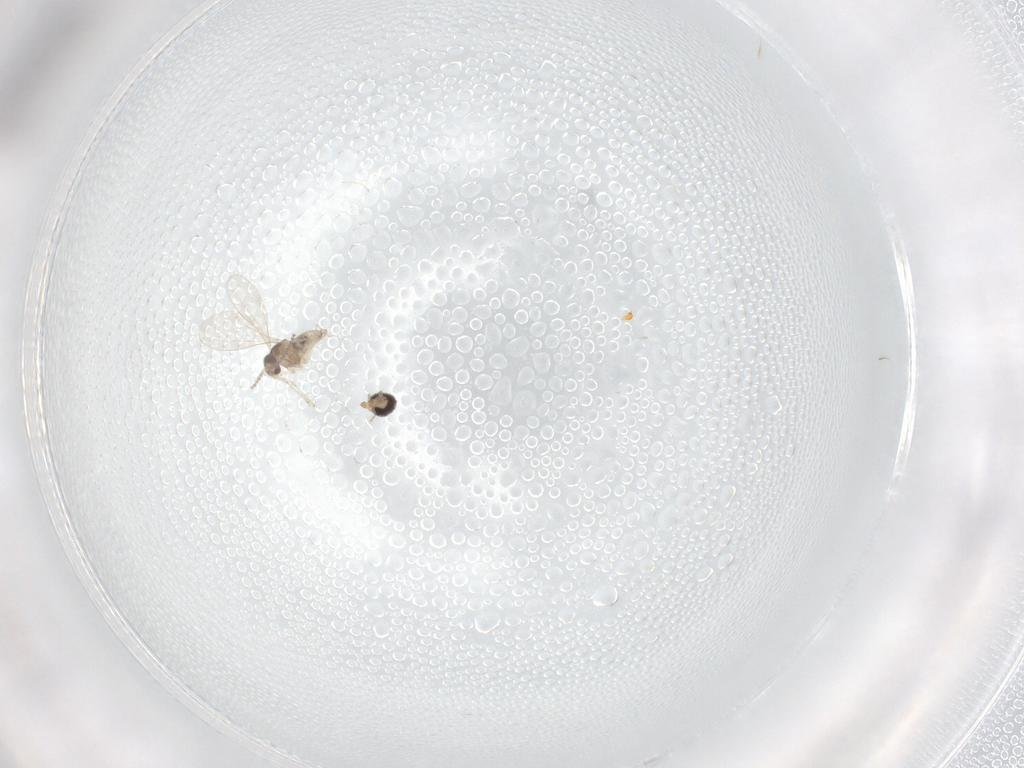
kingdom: Animalia
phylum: Arthropoda
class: Insecta
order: Diptera
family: Cecidomyiidae
